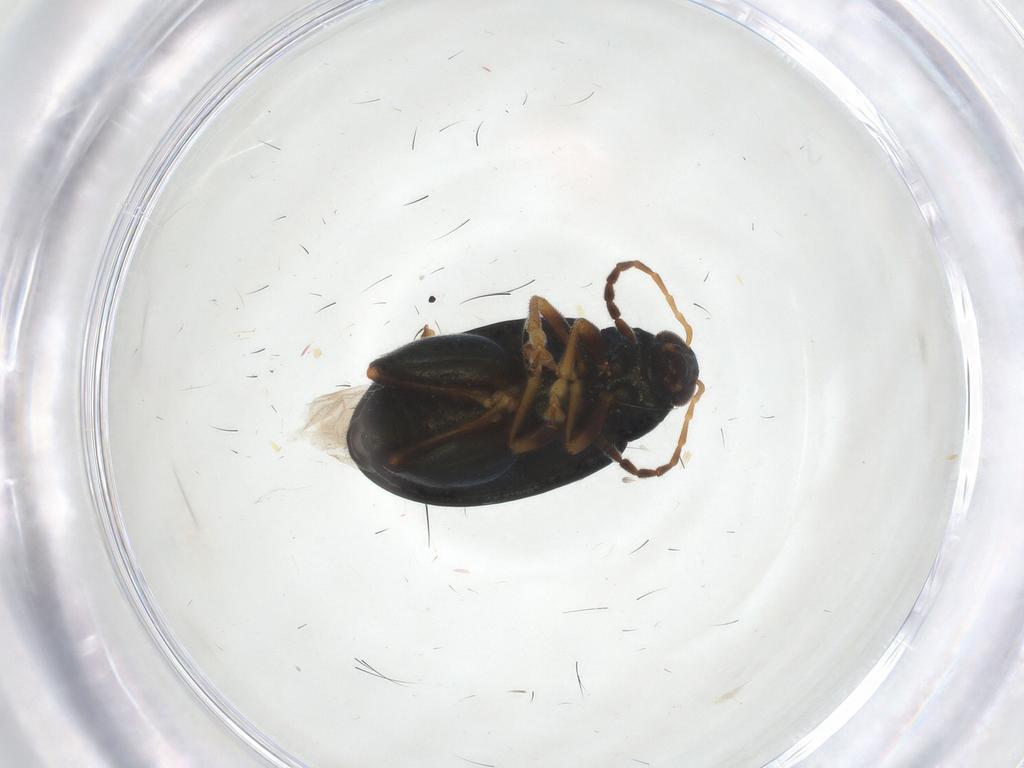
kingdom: Animalia
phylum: Arthropoda
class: Insecta
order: Coleoptera
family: Chrysomelidae
